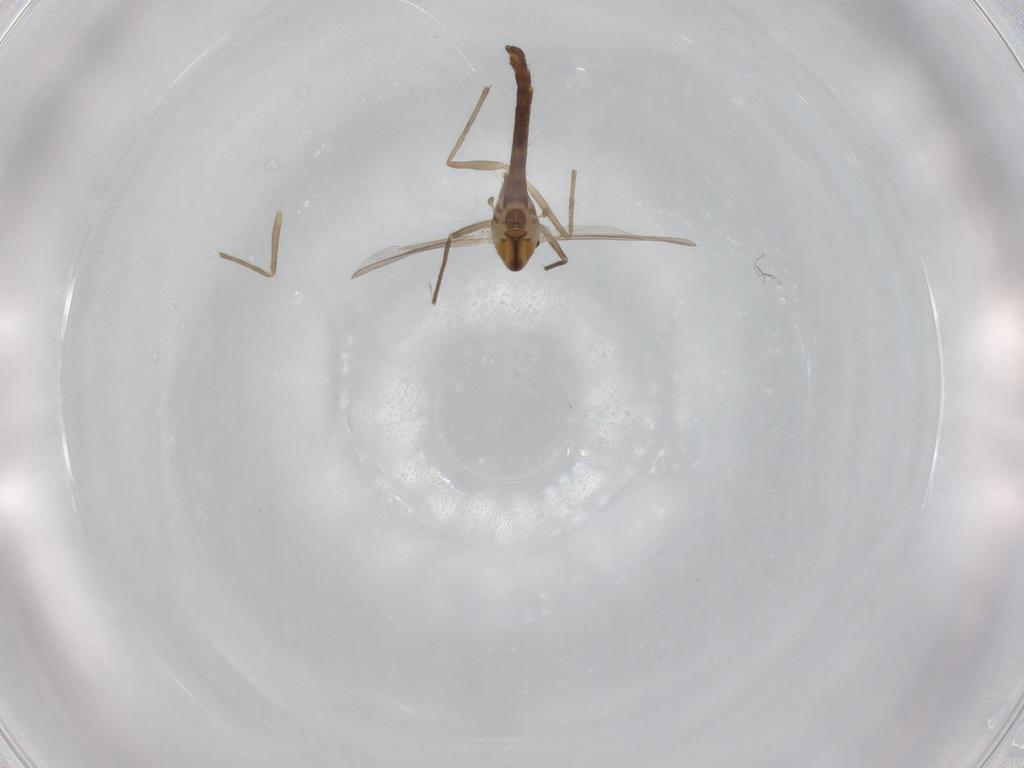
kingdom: Animalia
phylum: Arthropoda
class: Insecta
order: Diptera
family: Chironomidae
